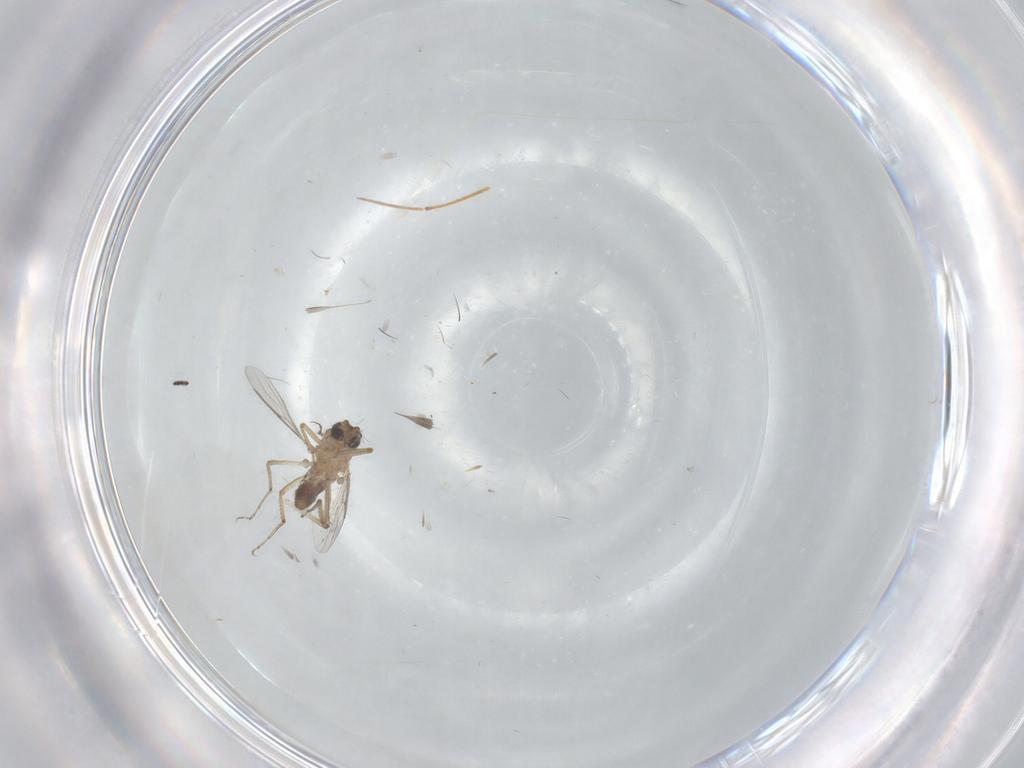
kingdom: Animalia
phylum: Arthropoda
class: Insecta
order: Diptera
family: Ditomyiidae
